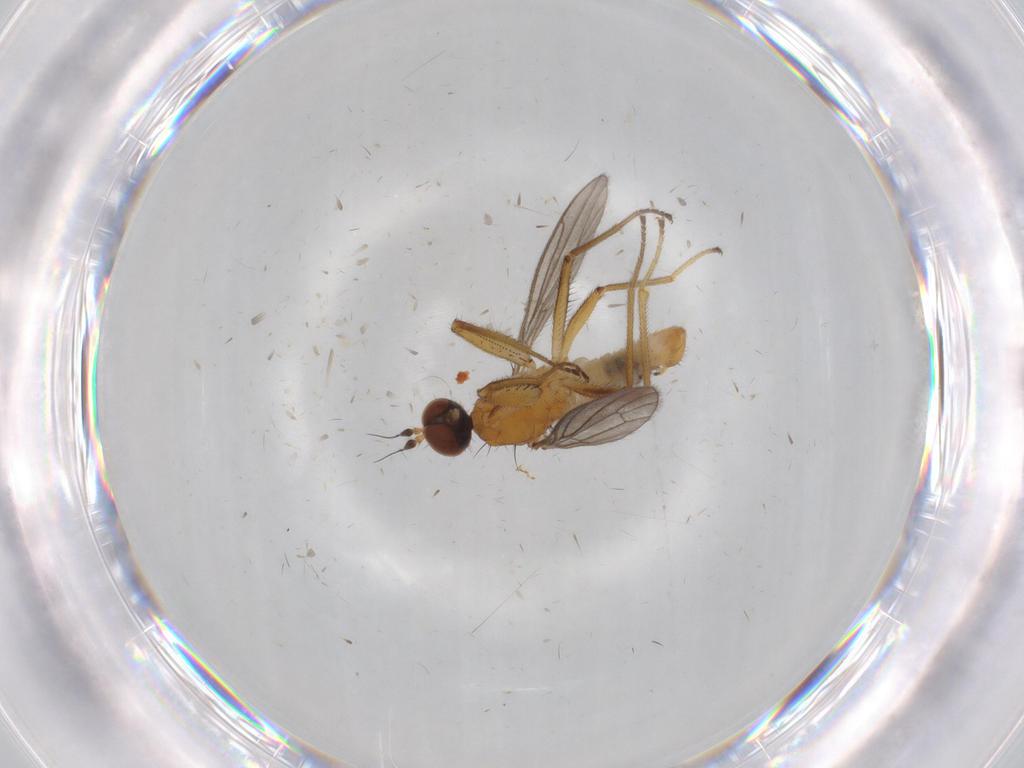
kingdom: Animalia
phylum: Arthropoda
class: Insecta
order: Diptera
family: Empididae
